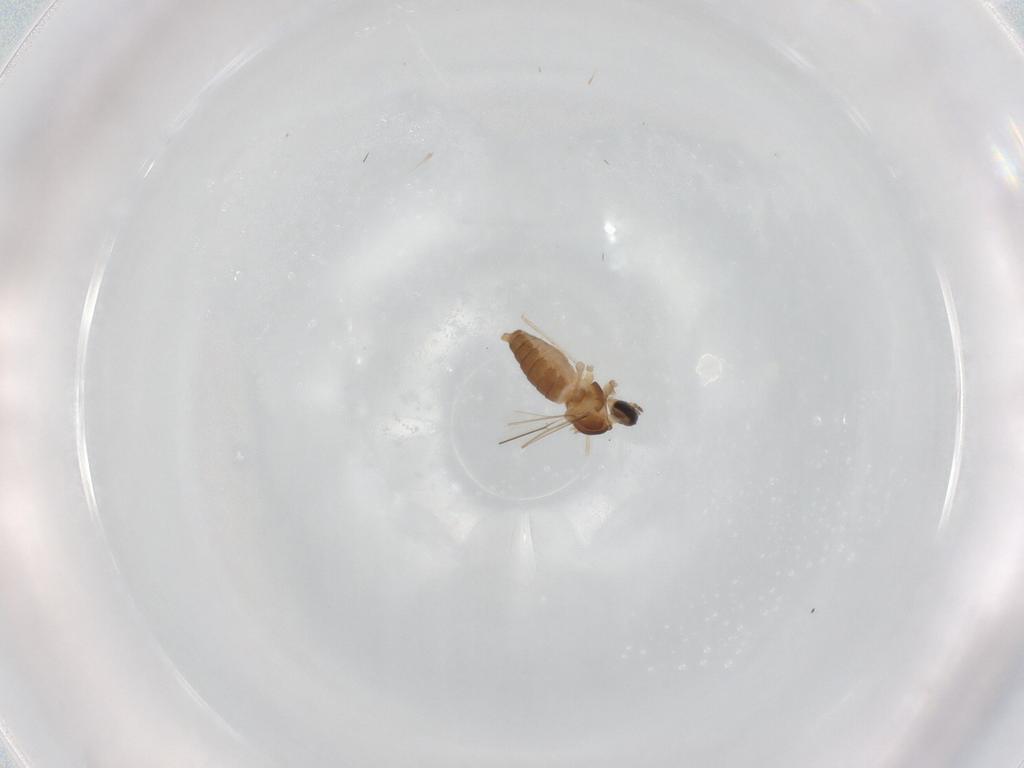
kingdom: Animalia
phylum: Arthropoda
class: Insecta
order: Diptera
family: Cecidomyiidae
